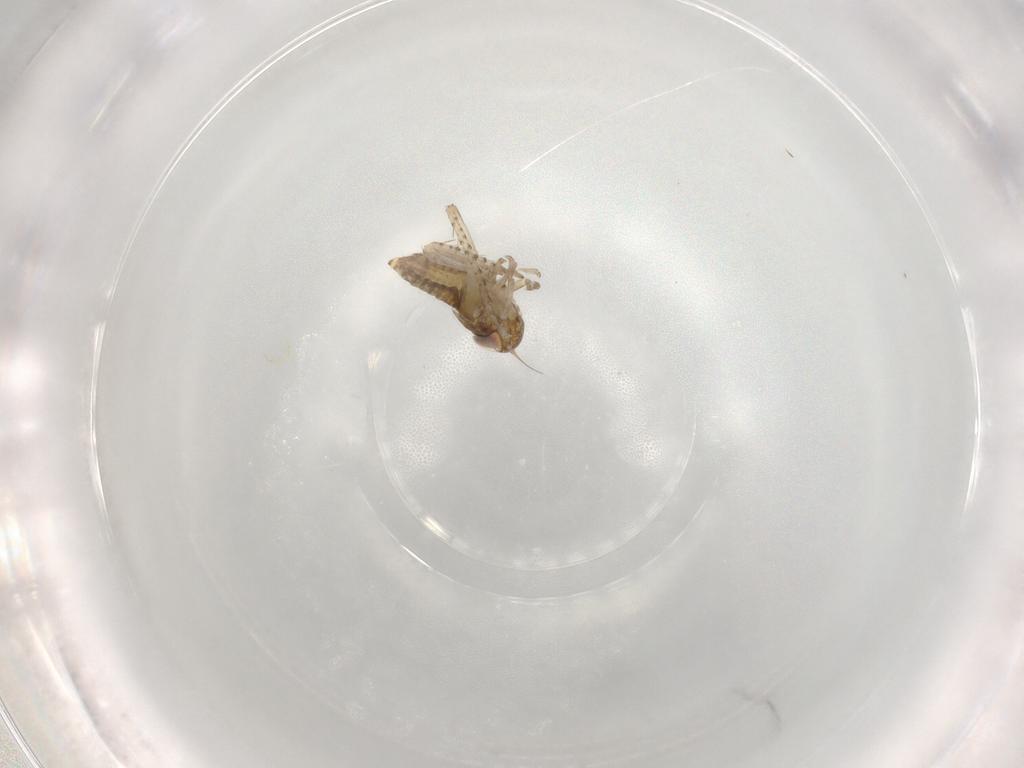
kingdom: Animalia
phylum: Arthropoda
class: Insecta
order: Hemiptera
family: Cicadellidae
